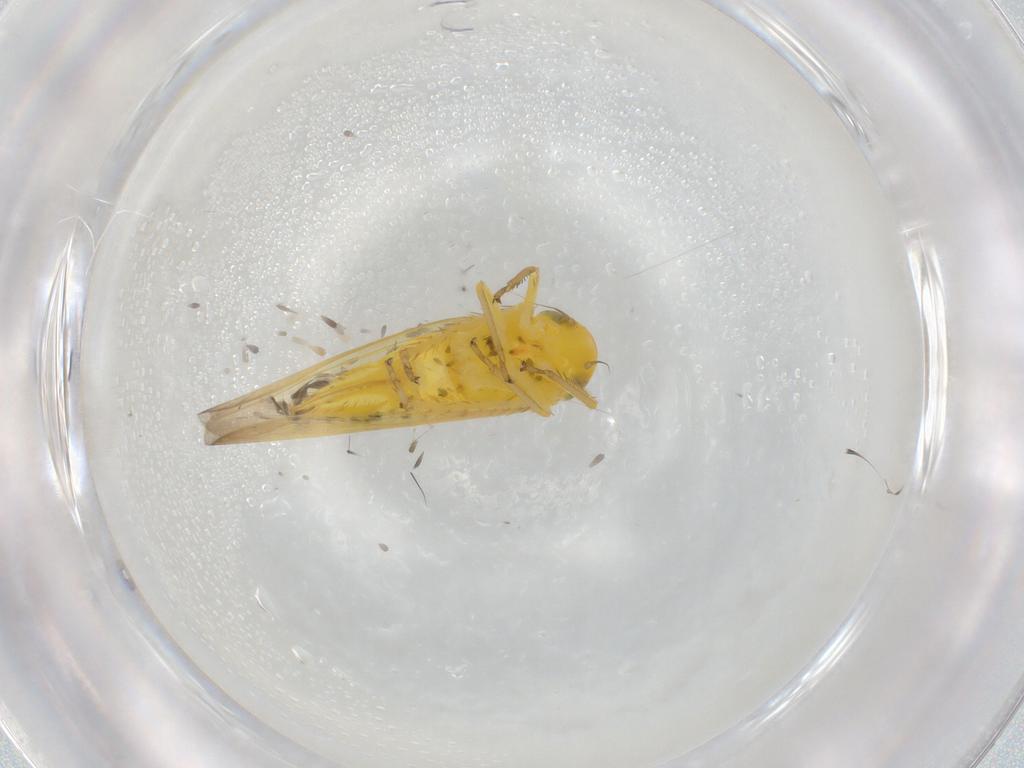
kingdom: Animalia
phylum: Arthropoda
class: Insecta
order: Hemiptera
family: Cicadellidae
